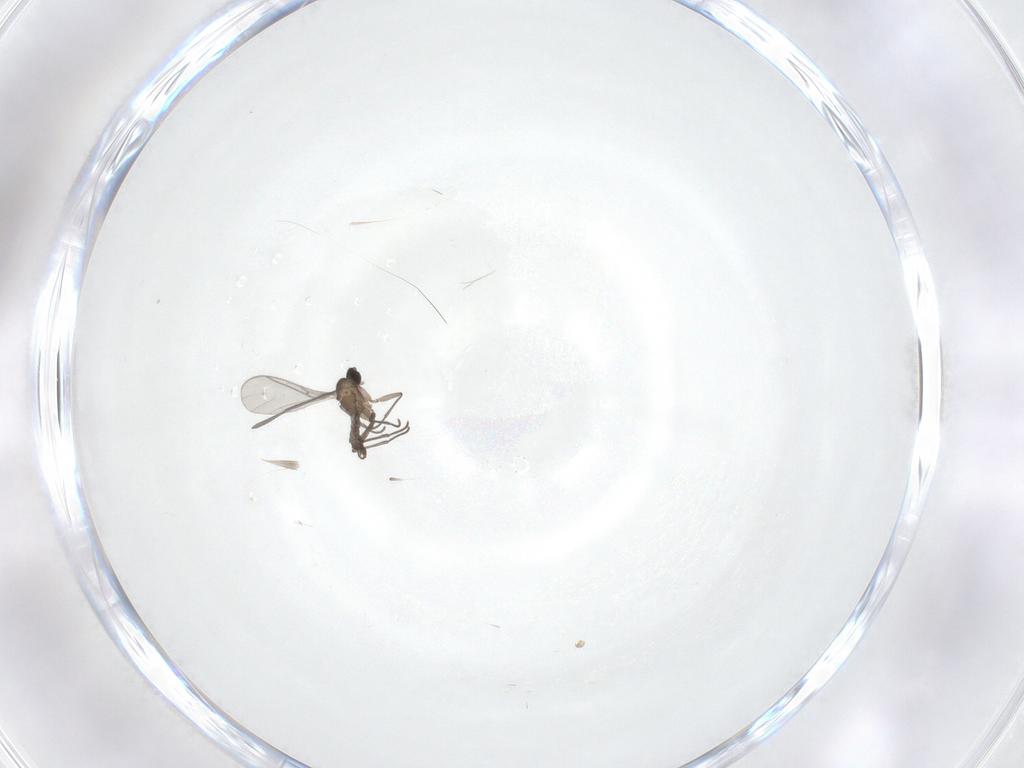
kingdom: Animalia
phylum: Arthropoda
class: Insecta
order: Diptera
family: Sciaridae
